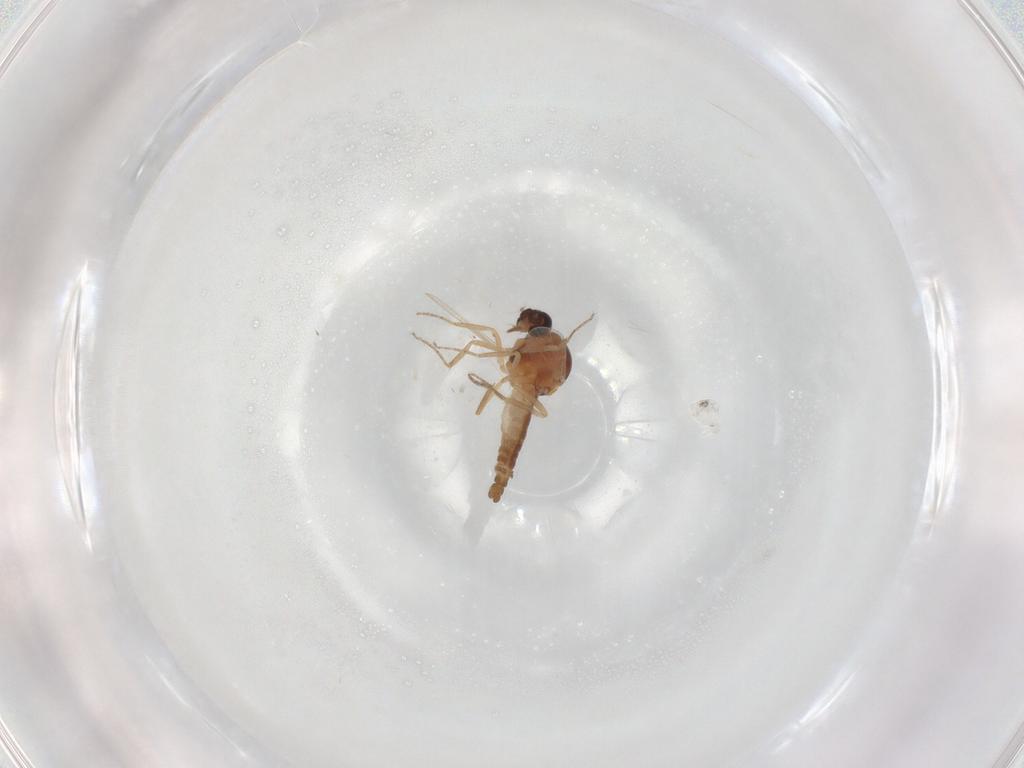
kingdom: Animalia
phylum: Arthropoda
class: Insecta
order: Diptera
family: Ceratopogonidae
